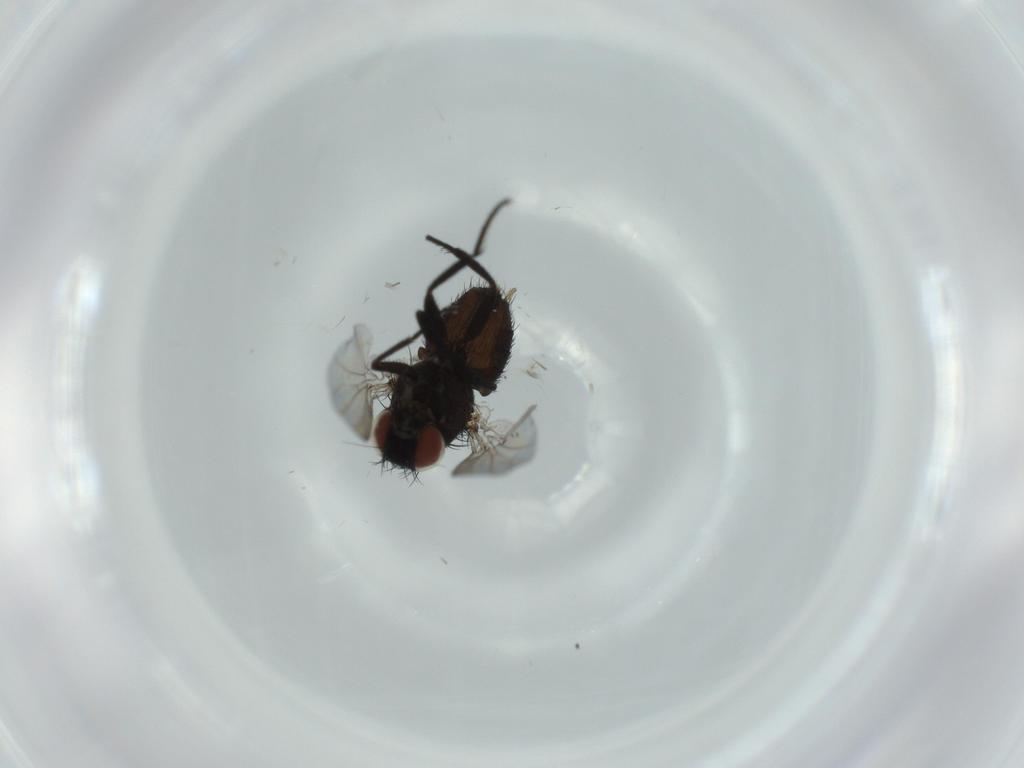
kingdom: Animalia
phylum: Arthropoda
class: Insecta
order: Diptera
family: Milichiidae
